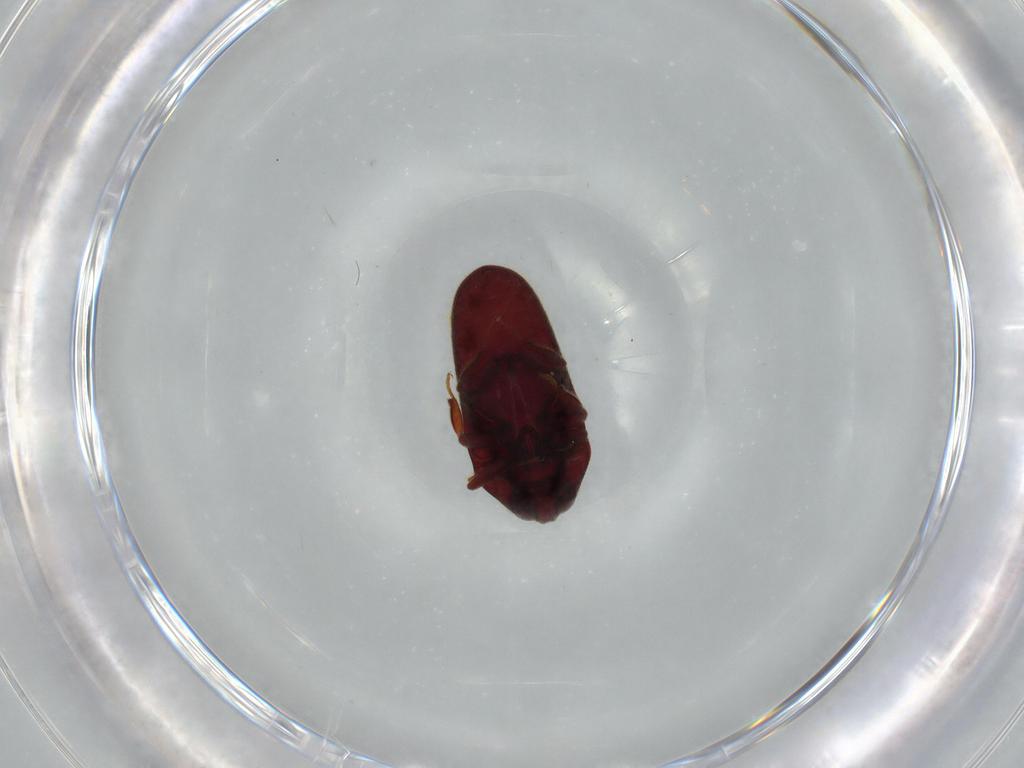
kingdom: Animalia
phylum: Arthropoda
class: Insecta
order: Coleoptera
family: Throscidae
